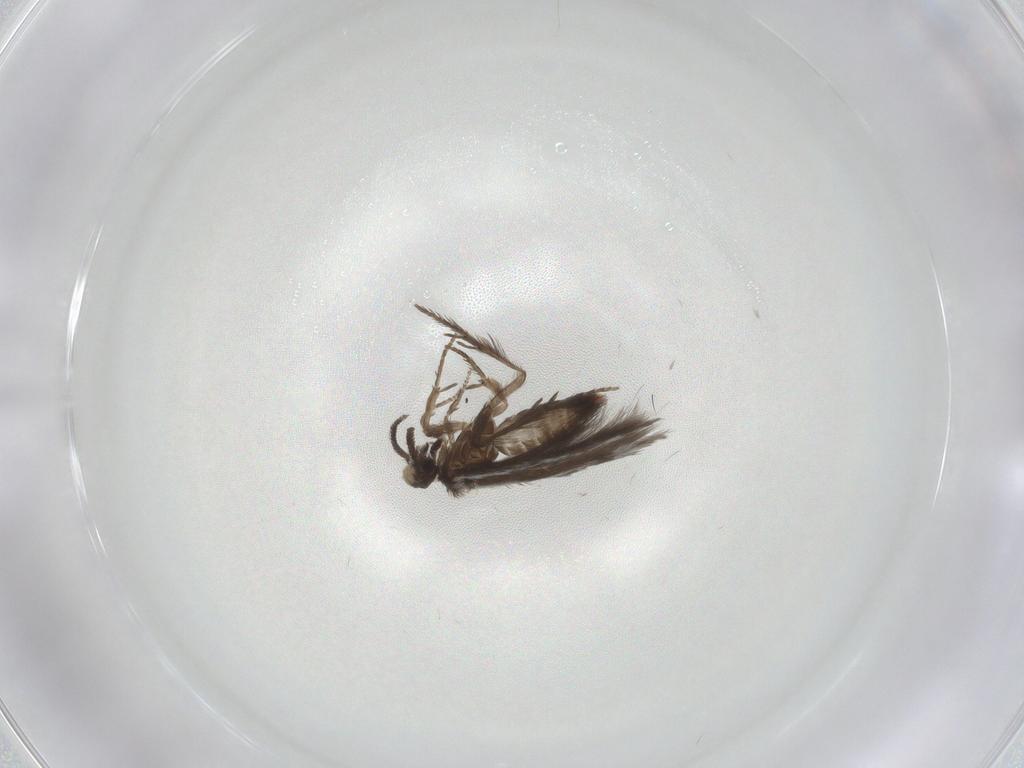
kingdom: Animalia
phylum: Arthropoda
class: Insecta
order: Trichoptera
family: Hydroptilidae
